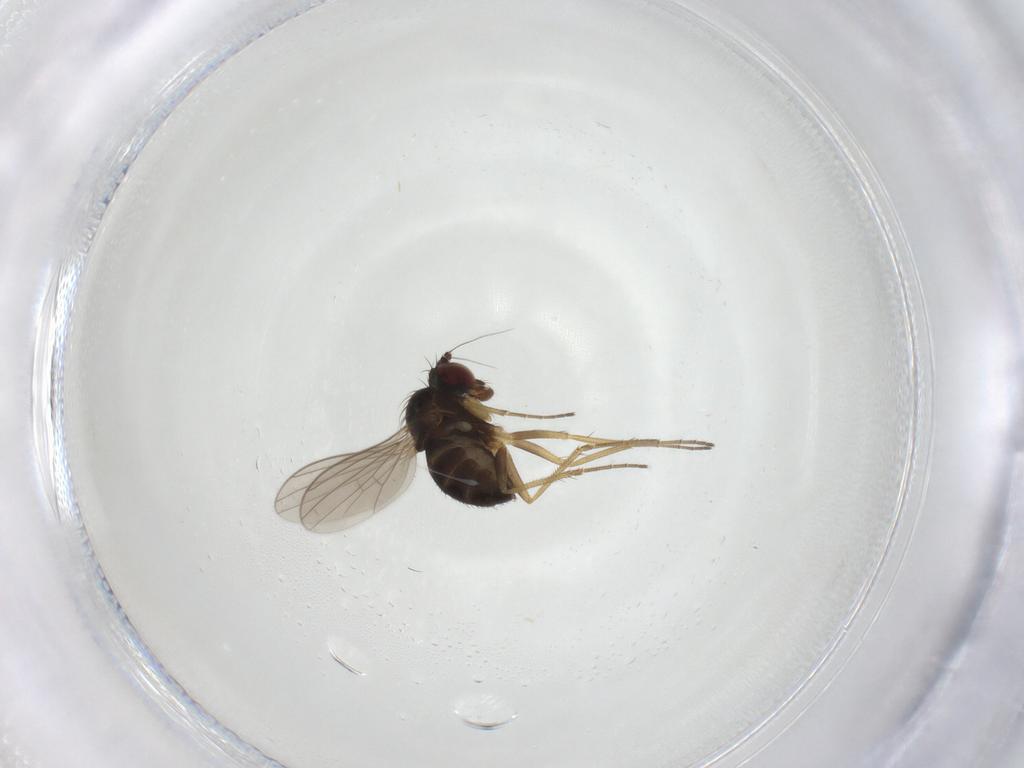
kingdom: Animalia
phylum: Arthropoda
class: Insecta
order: Diptera
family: Dolichopodidae
